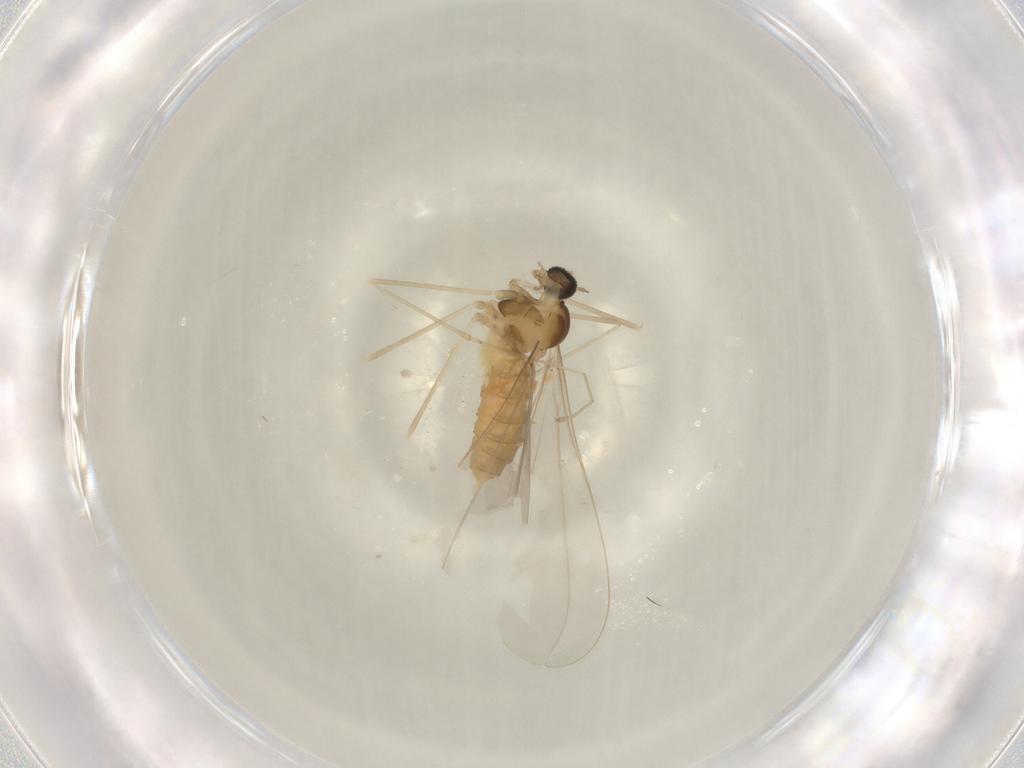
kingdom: Animalia
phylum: Arthropoda
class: Insecta
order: Diptera
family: Cecidomyiidae
